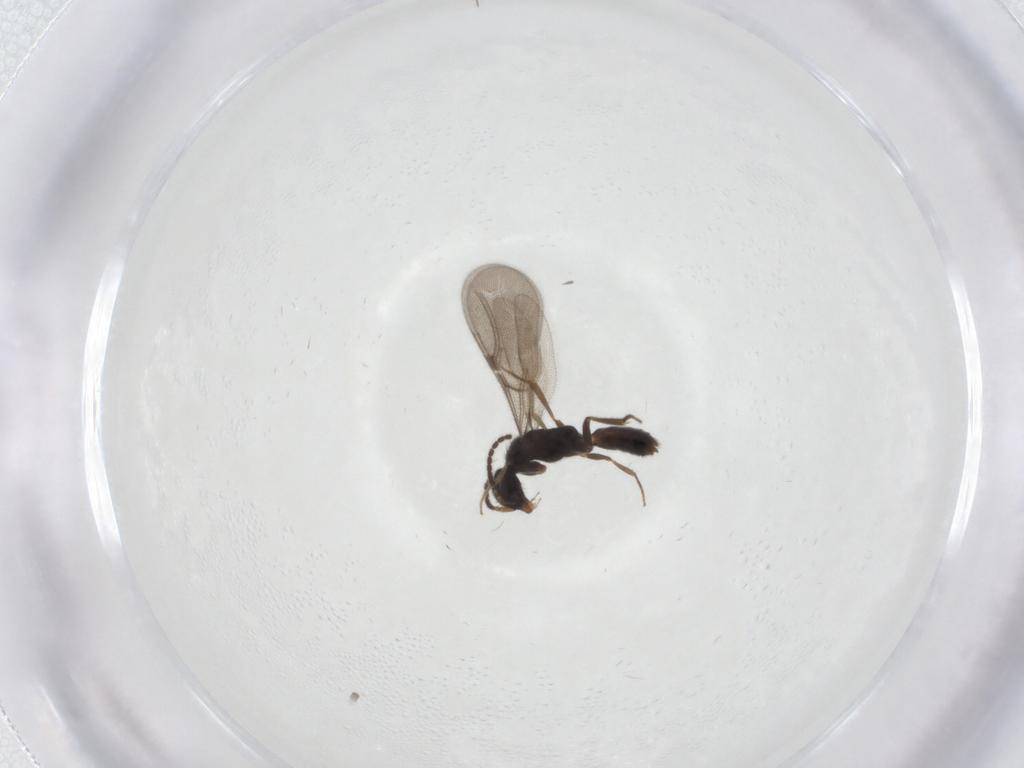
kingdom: Animalia
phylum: Arthropoda
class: Insecta
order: Hymenoptera
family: Bethylidae
